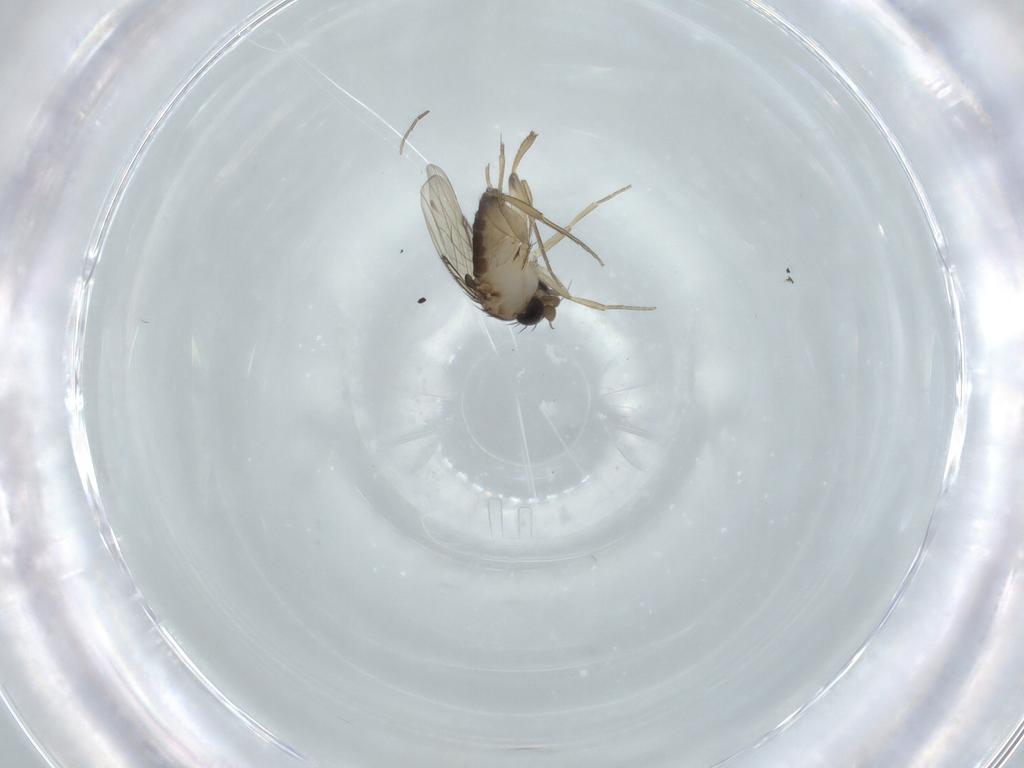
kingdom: Animalia
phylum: Arthropoda
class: Insecta
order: Diptera
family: Phoridae
